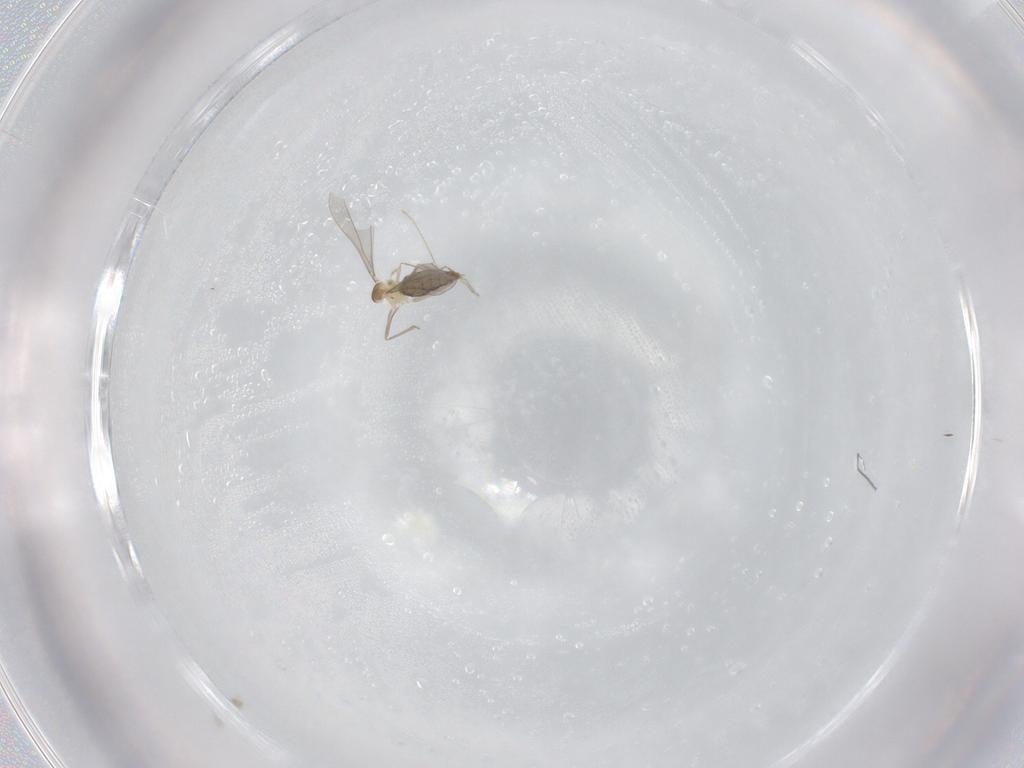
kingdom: Animalia
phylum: Arthropoda
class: Insecta
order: Diptera
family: Cecidomyiidae
